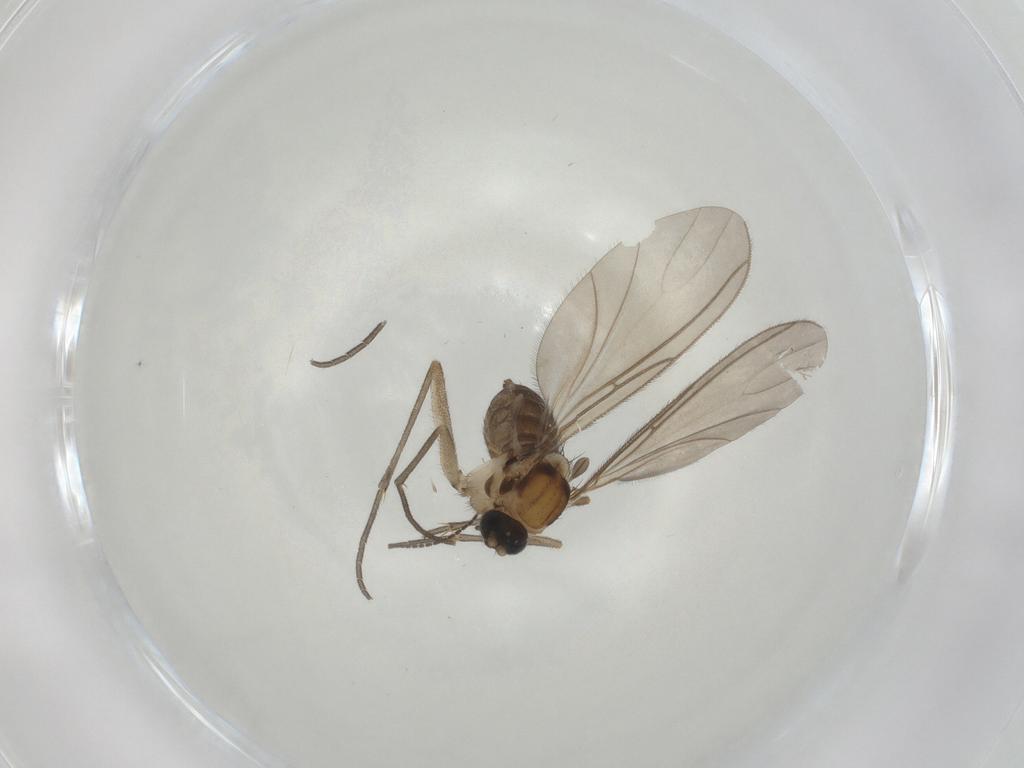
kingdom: Animalia
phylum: Arthropoda
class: Insecta
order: Diptera
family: Sciaridae
